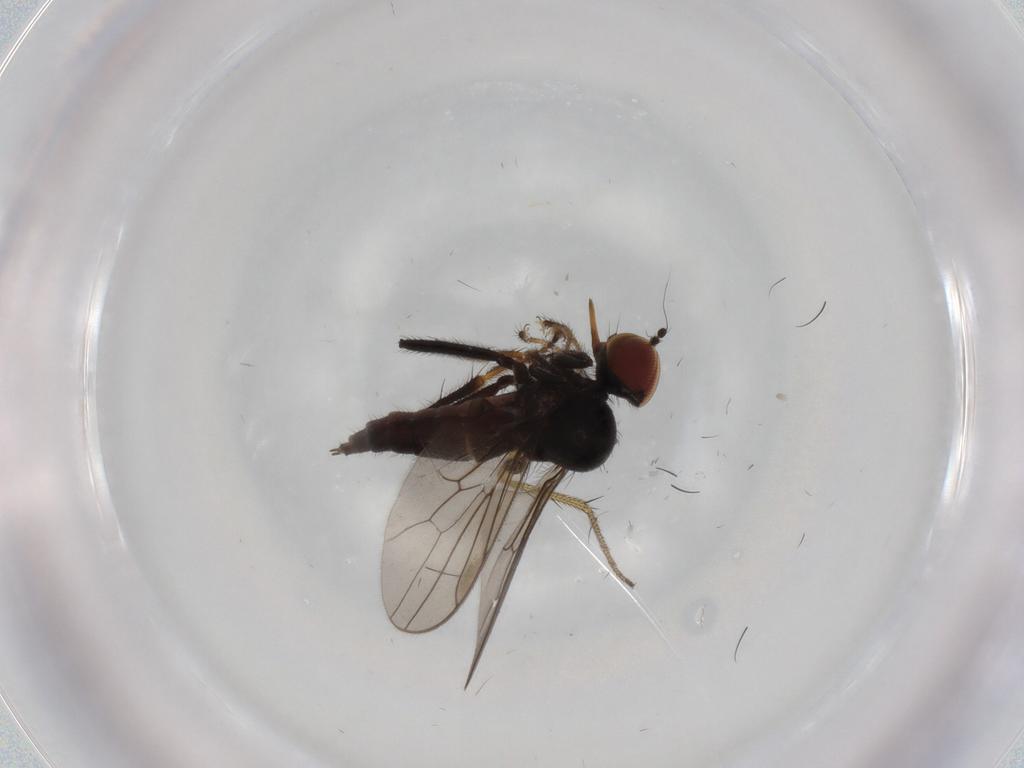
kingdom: Animalia
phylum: Arthropoda
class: Insecta
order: Diptera
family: Hybotidae
